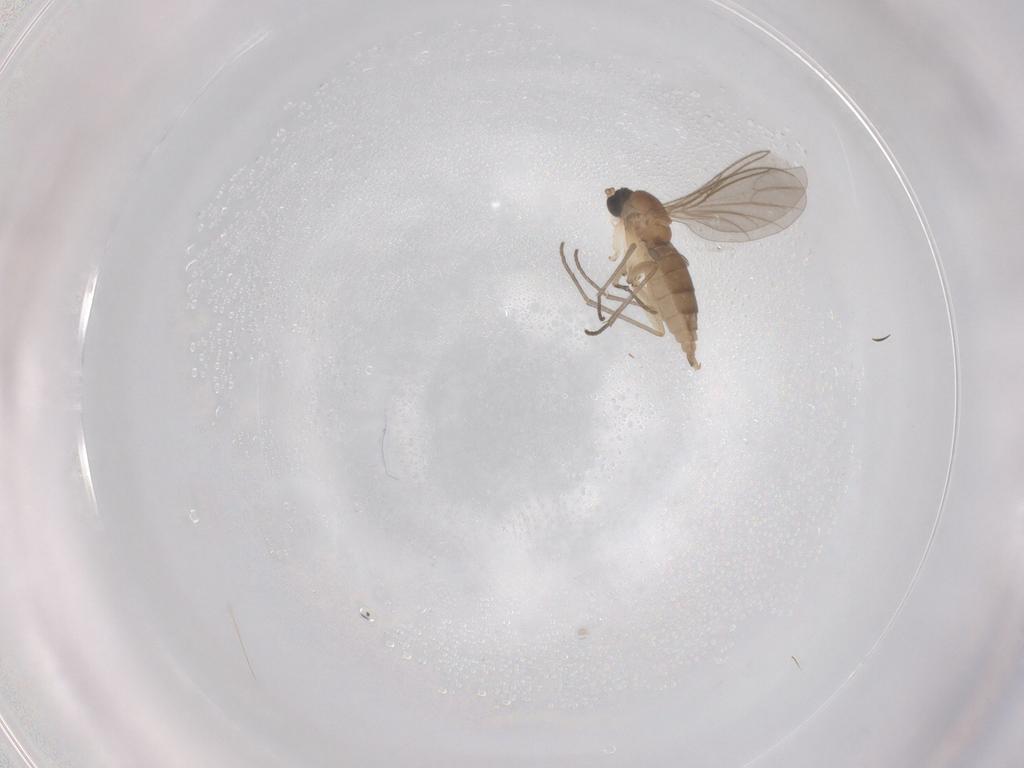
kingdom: Animalia
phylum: Arthropoda
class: Insecta
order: Diptera
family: Sciaridae
